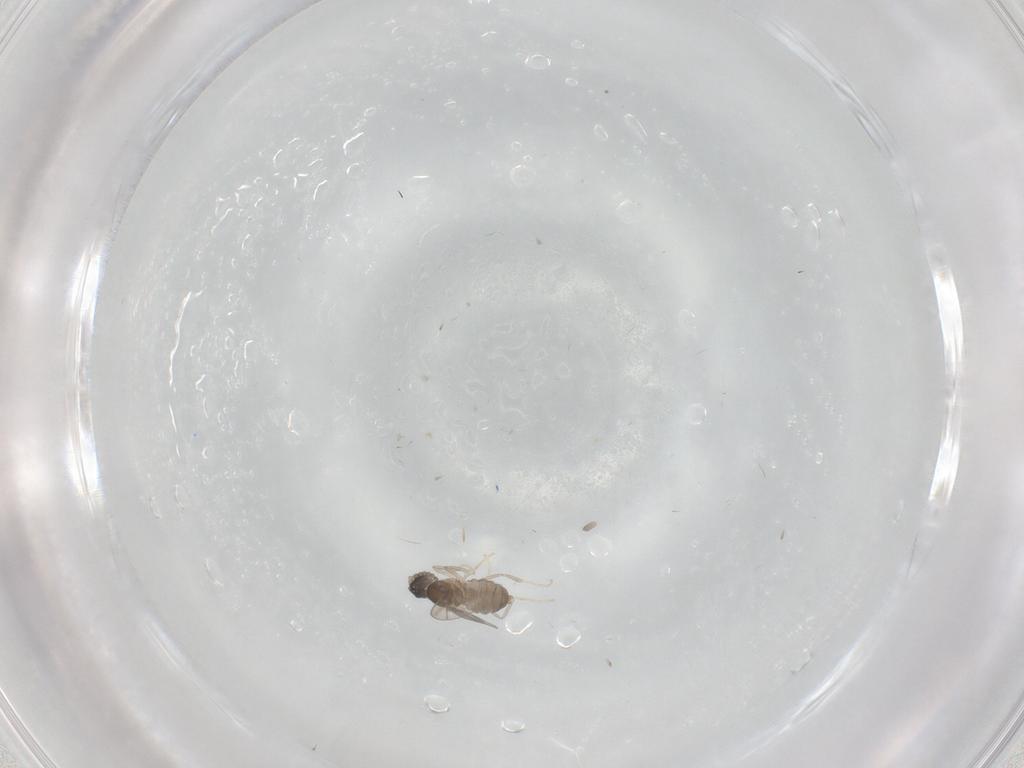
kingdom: Animalia
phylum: Arthropoda
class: Insecta
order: Diptera
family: Cecidomyiidae
